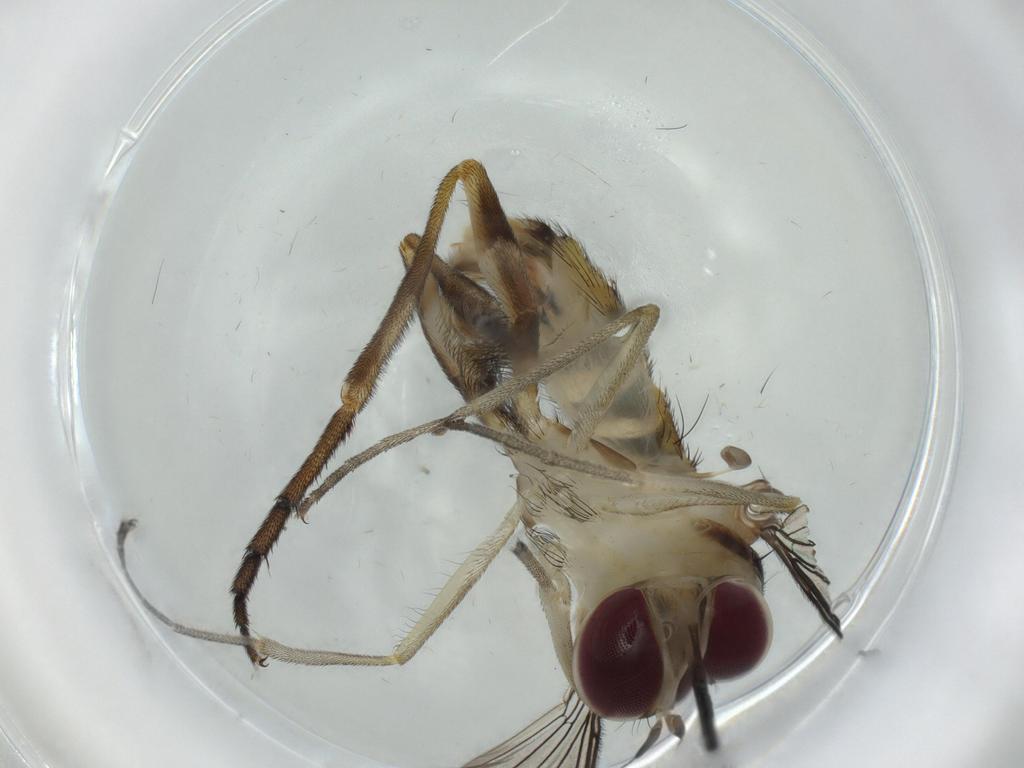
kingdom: Animalia
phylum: Arthropoda
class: Insecta
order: Diptera
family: Conopidae
